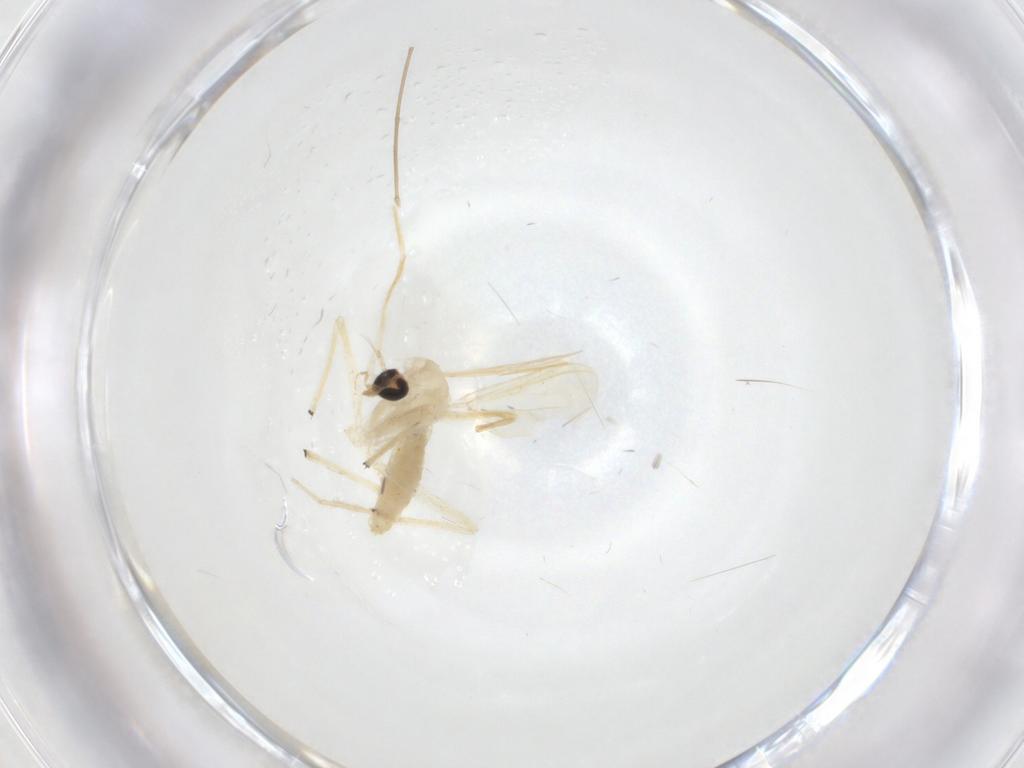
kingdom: Animalia
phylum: Arthropoda
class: Insecta
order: Diptera
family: Chironomidae
